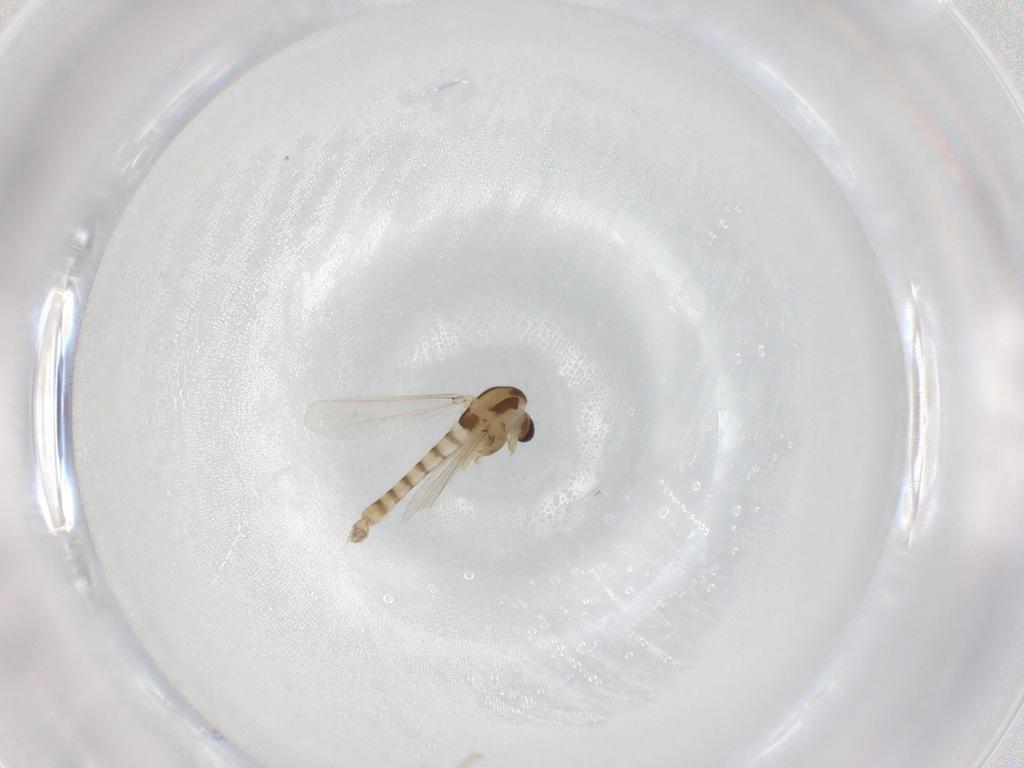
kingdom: Animalia
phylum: Arthropoda
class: Insecta
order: Diptera
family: Chironomidae
